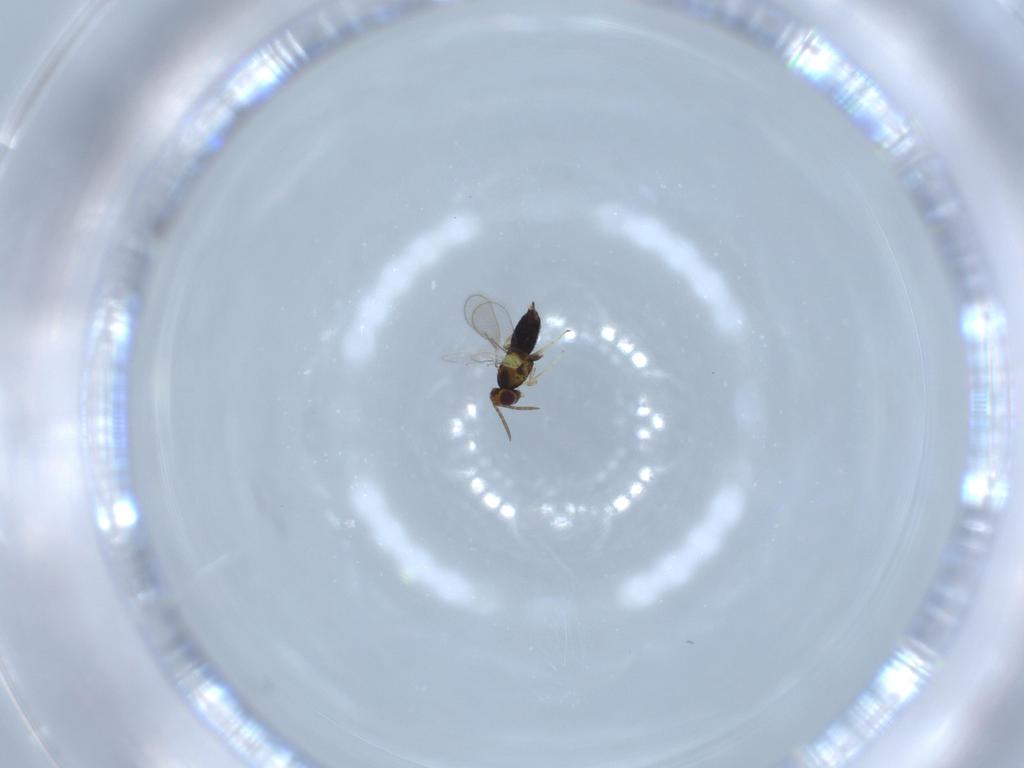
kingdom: Animalia
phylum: Arthropoda
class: Insecta
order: Hymenoptera
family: Aphelinidae
